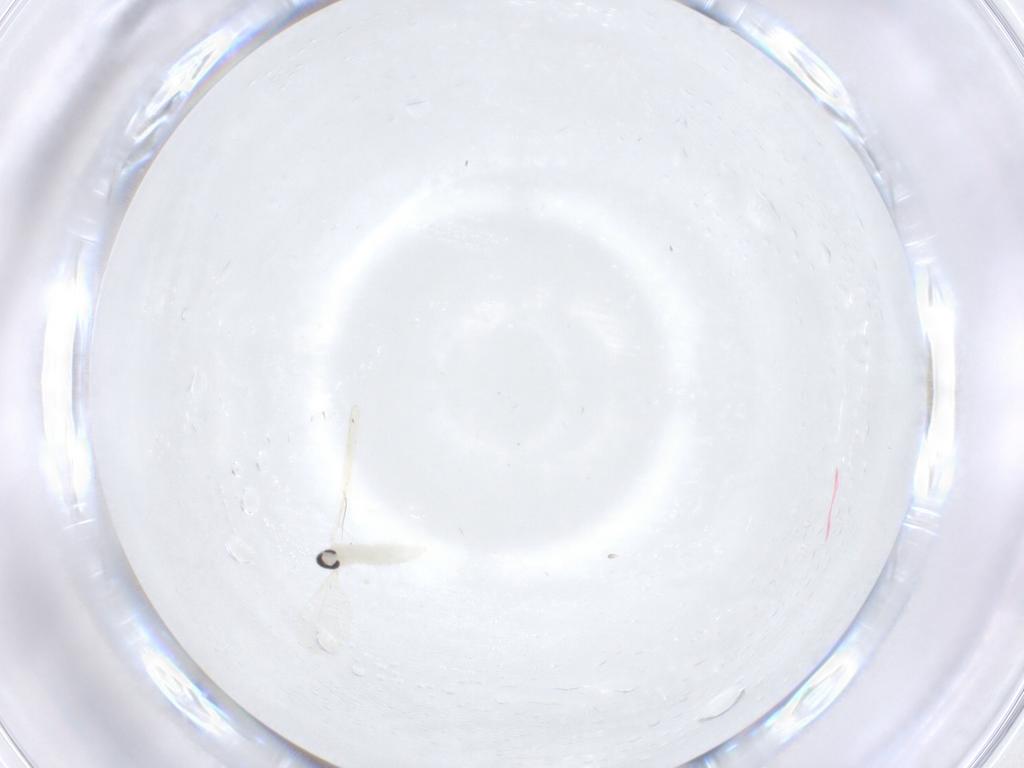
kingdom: Animalia
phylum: Arthropoda
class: Insecta
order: Diptera
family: Cecidomyiidae
